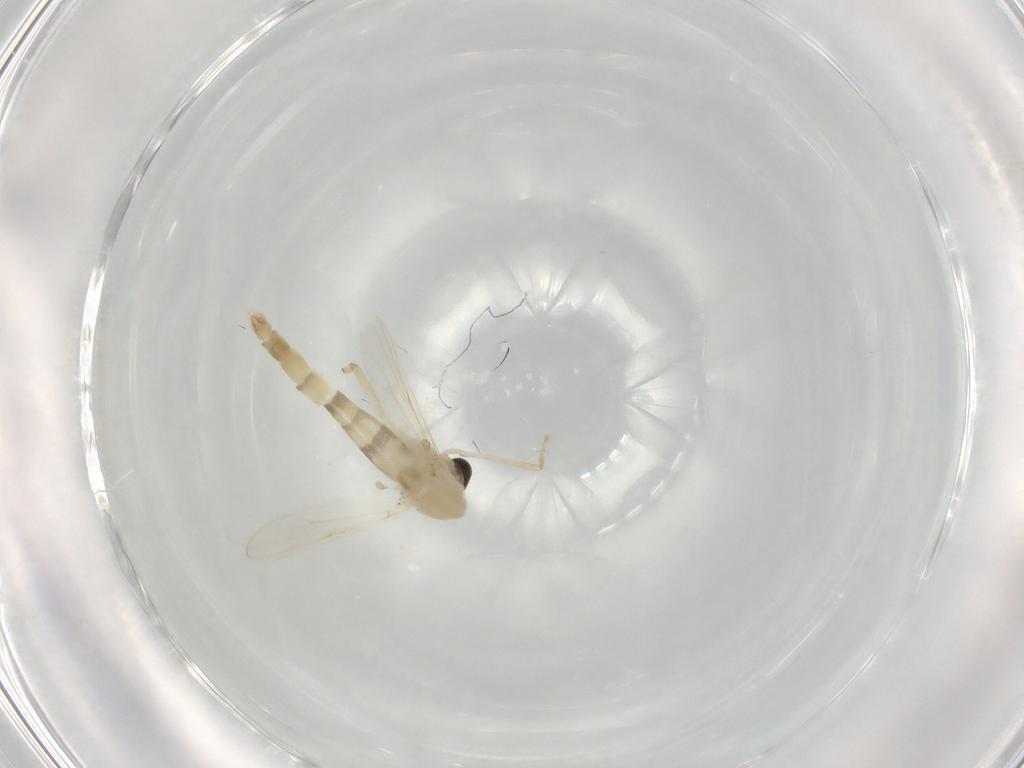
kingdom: Animalia
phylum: Arthropoda
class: Insecta
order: Diptera
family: Chironomidae
